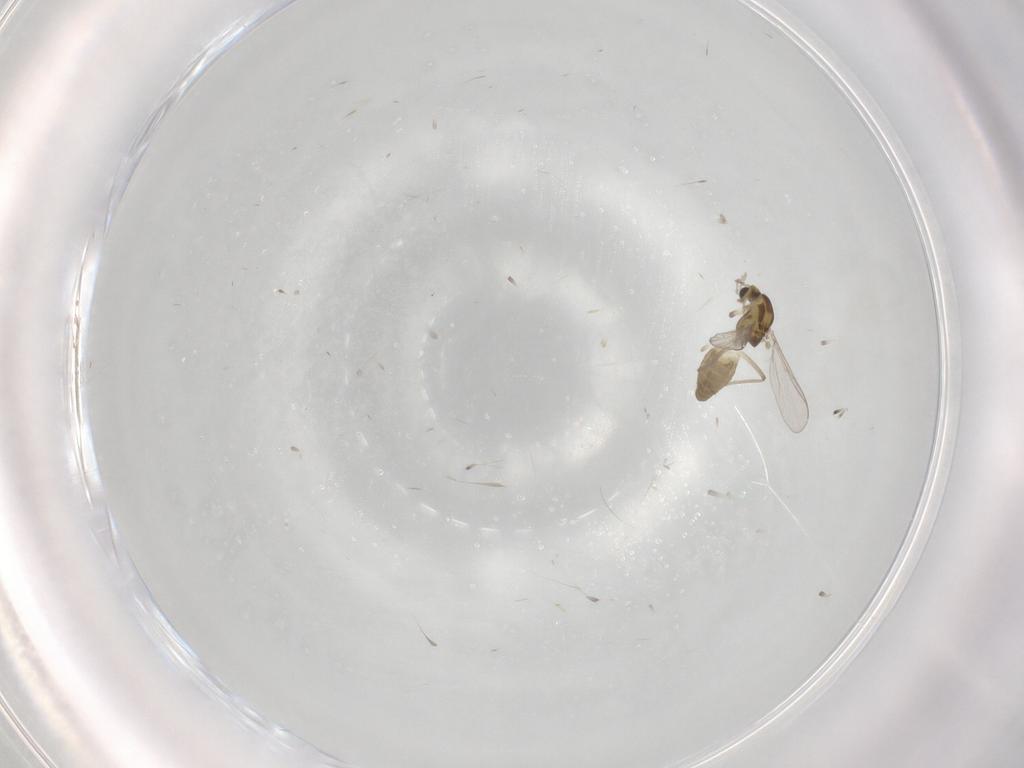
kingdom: Animalia
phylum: Arthropoda
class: Insecta
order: Diptera
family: Chironomidae
